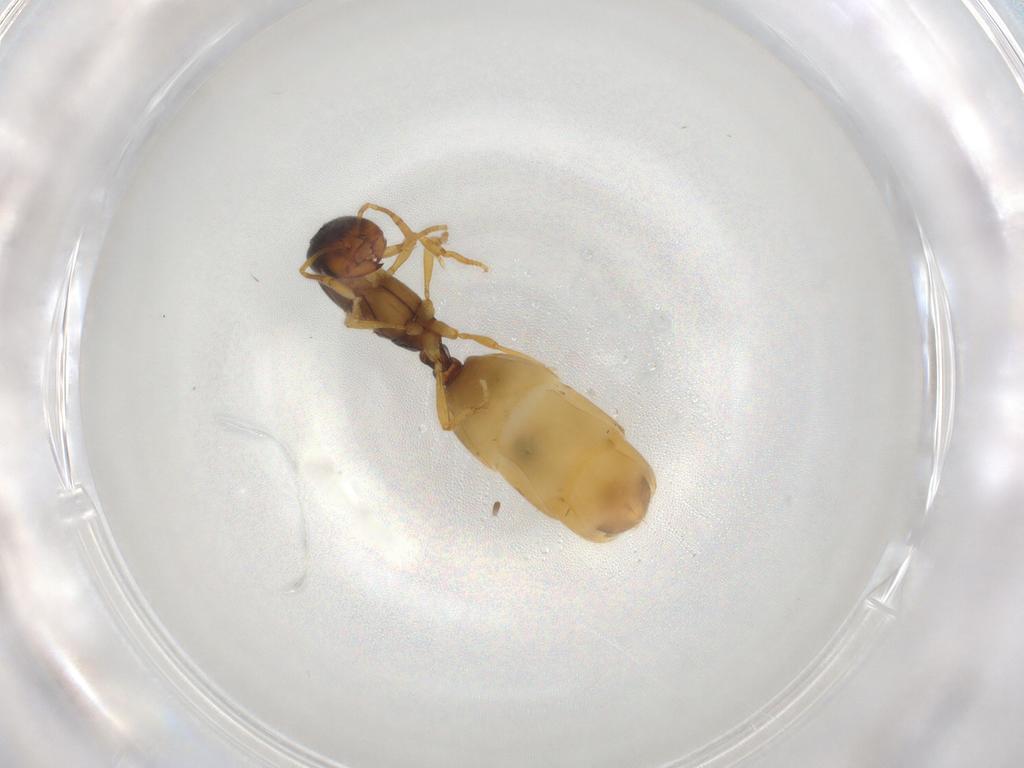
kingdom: Animalia
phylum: Arthropoda
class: Insecta
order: Hymenoptera
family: Formicidae
